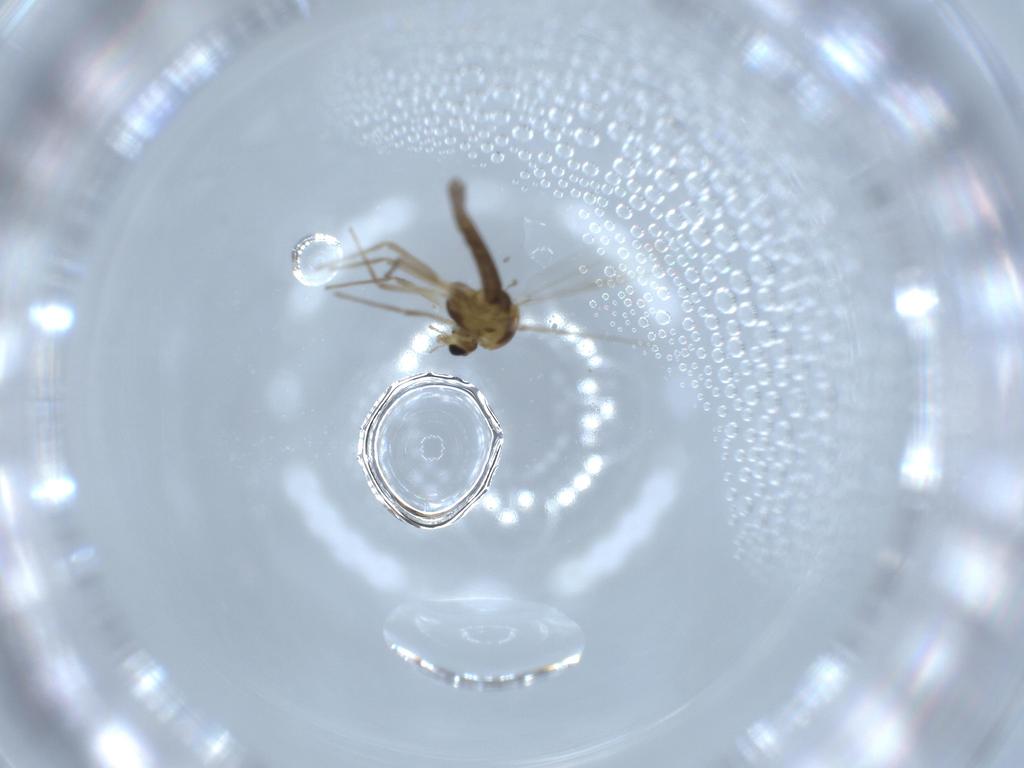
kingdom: Animalia
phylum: Arthropoda
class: Insecta
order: Diptera
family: Chironomidae
